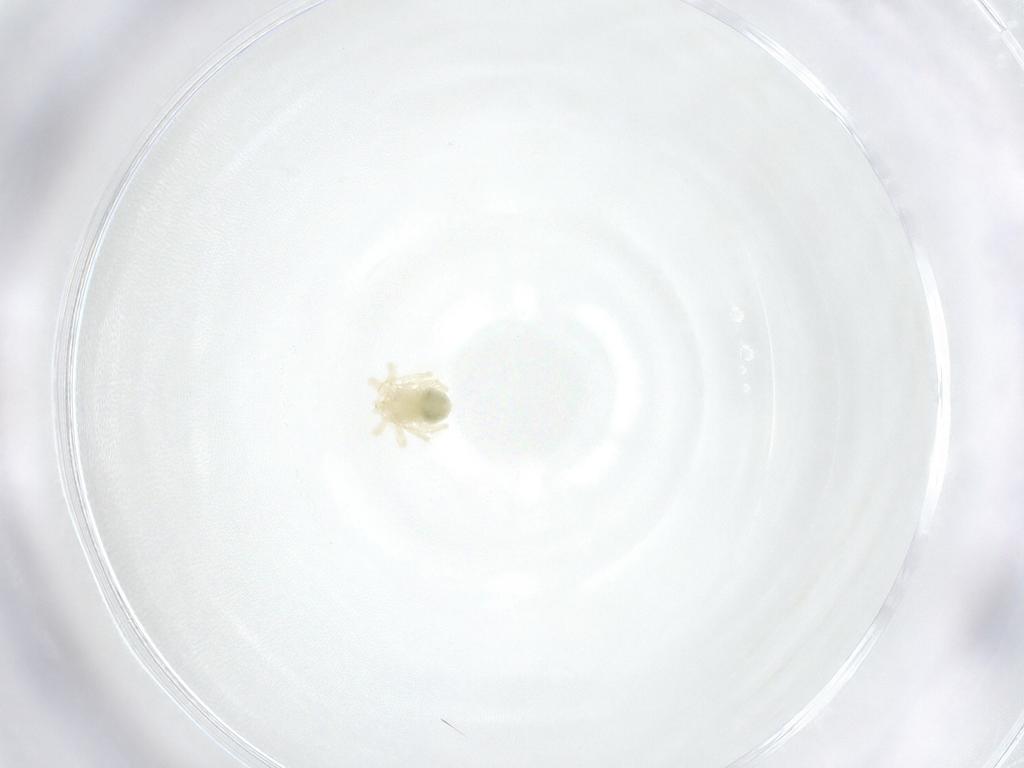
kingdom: Animalia
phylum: Arthropoda
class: Arachnida
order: Trombidiformes
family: Anystidae
